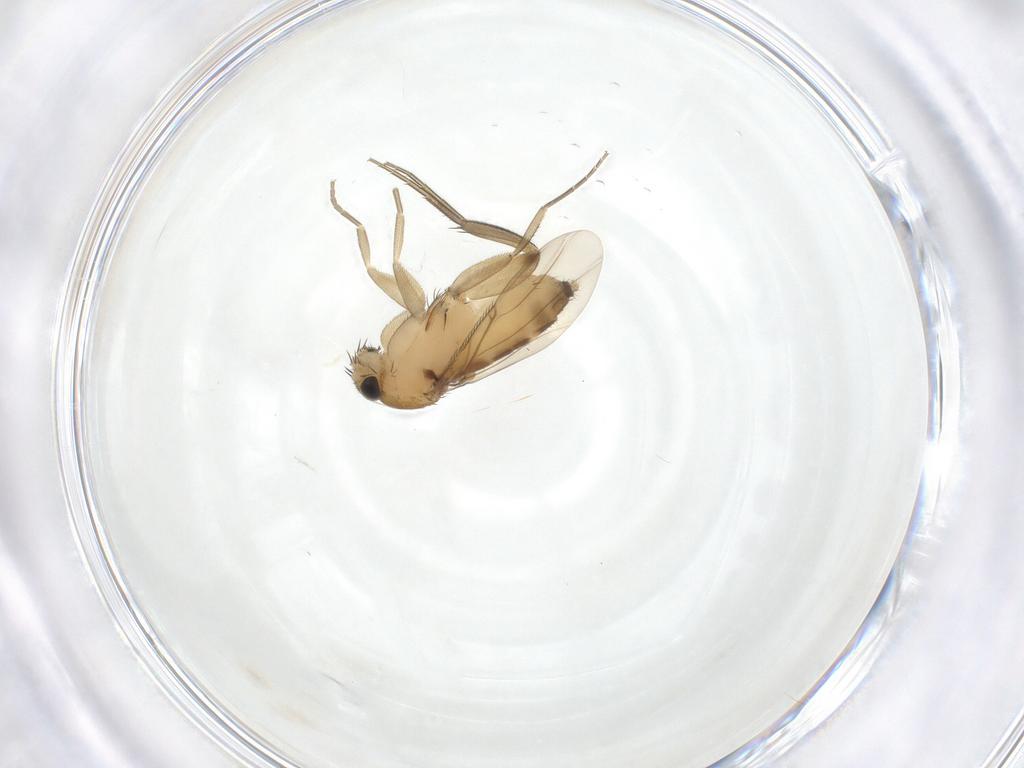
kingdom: Animalia
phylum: Arthropoda
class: Insecta
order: Diptera
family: Phoridae
